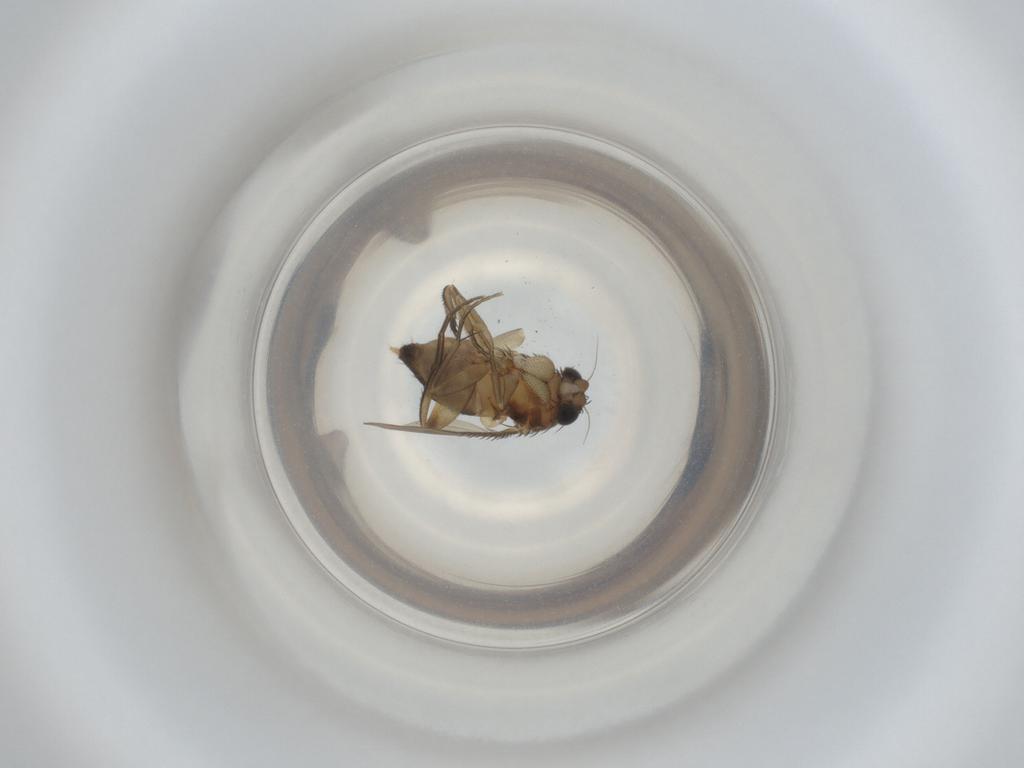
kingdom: Animalia
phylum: Arthropoda
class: Insecta
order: Diptera
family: Phoridae
